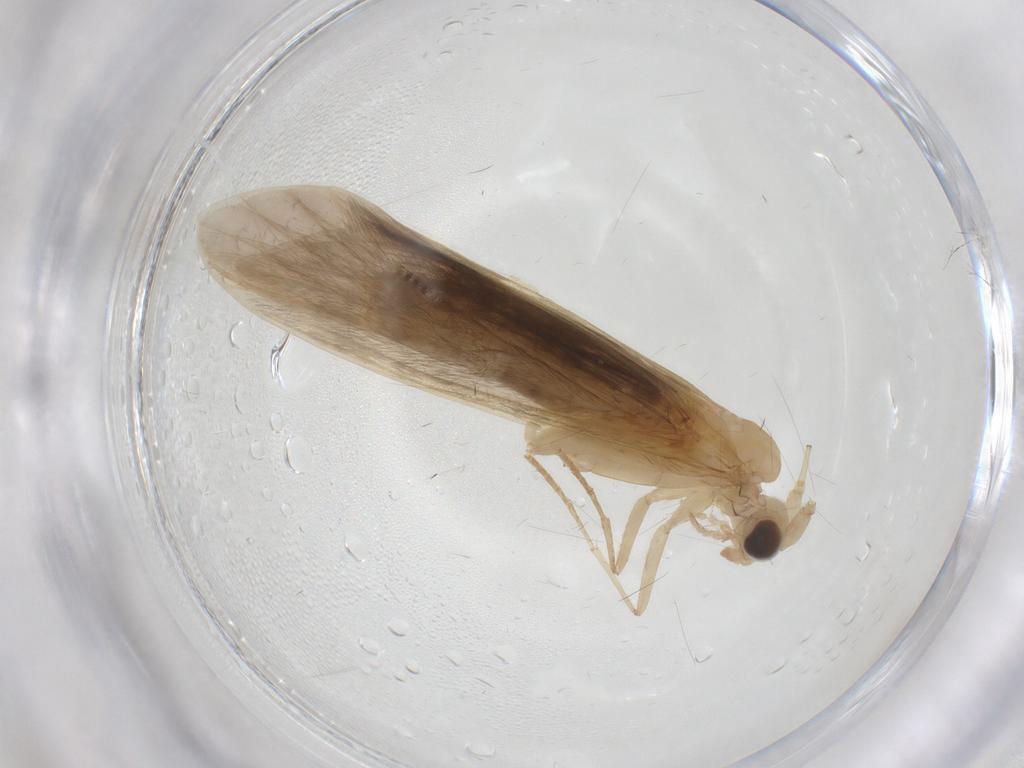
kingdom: Animalia
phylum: Arthropoda
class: Insecta
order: Trichoptera
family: Leptoceridae
